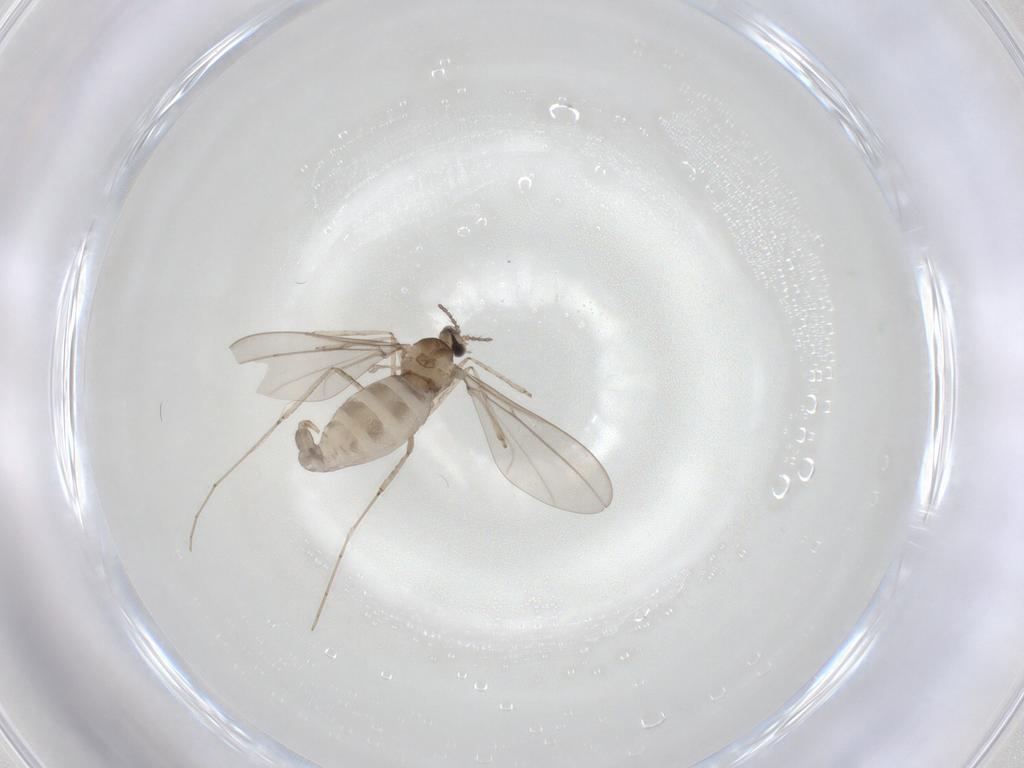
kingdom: Animalia
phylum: Arthropoda
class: Insecta
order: Diptera
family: Cecidomyiidae
